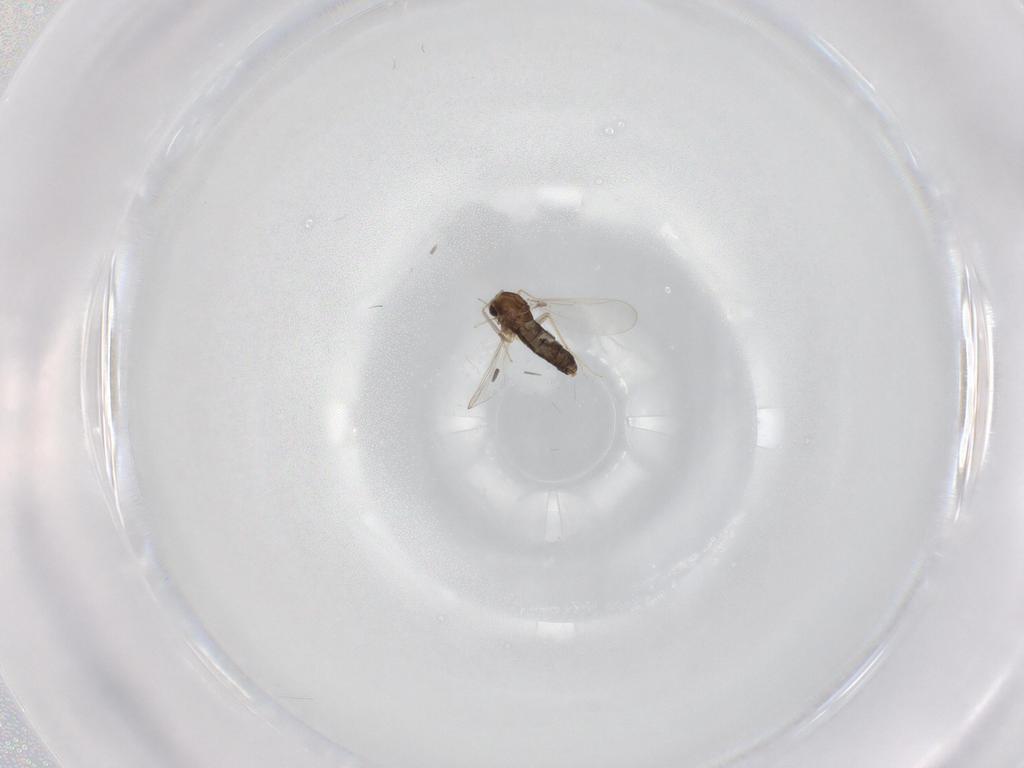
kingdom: Animalia
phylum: Arthropoda
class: Insecta
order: Diptera
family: Chironomidae
